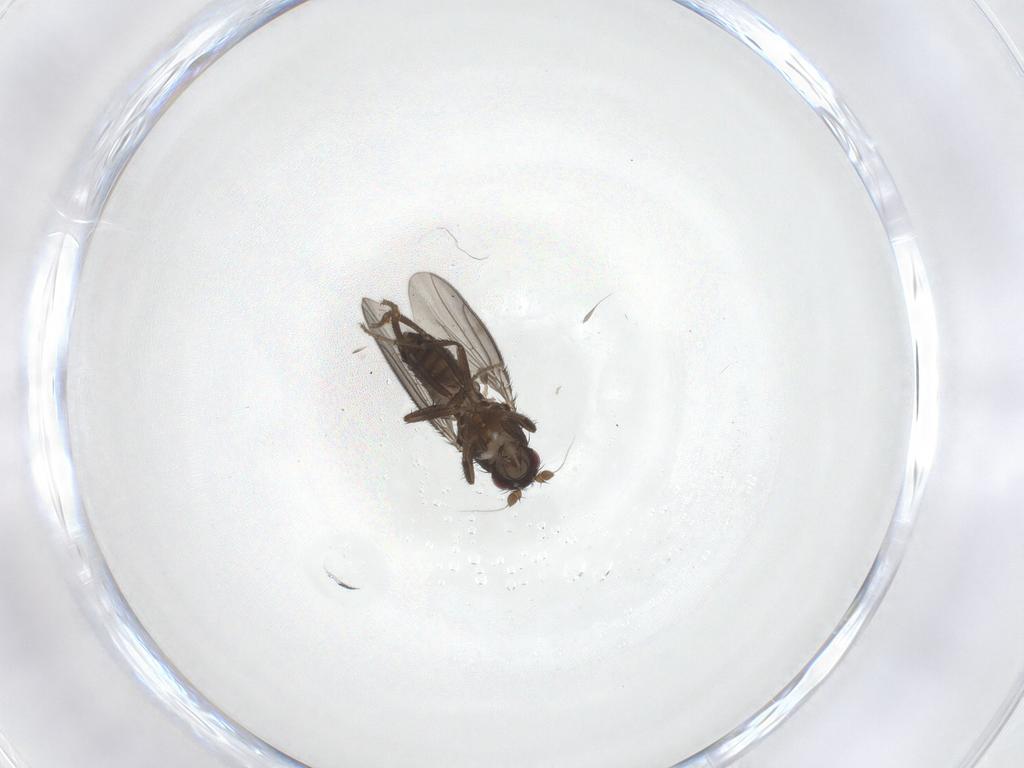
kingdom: Animalia
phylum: Arthropoda
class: Insecta
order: Diptera
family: Sphaeroceridae
